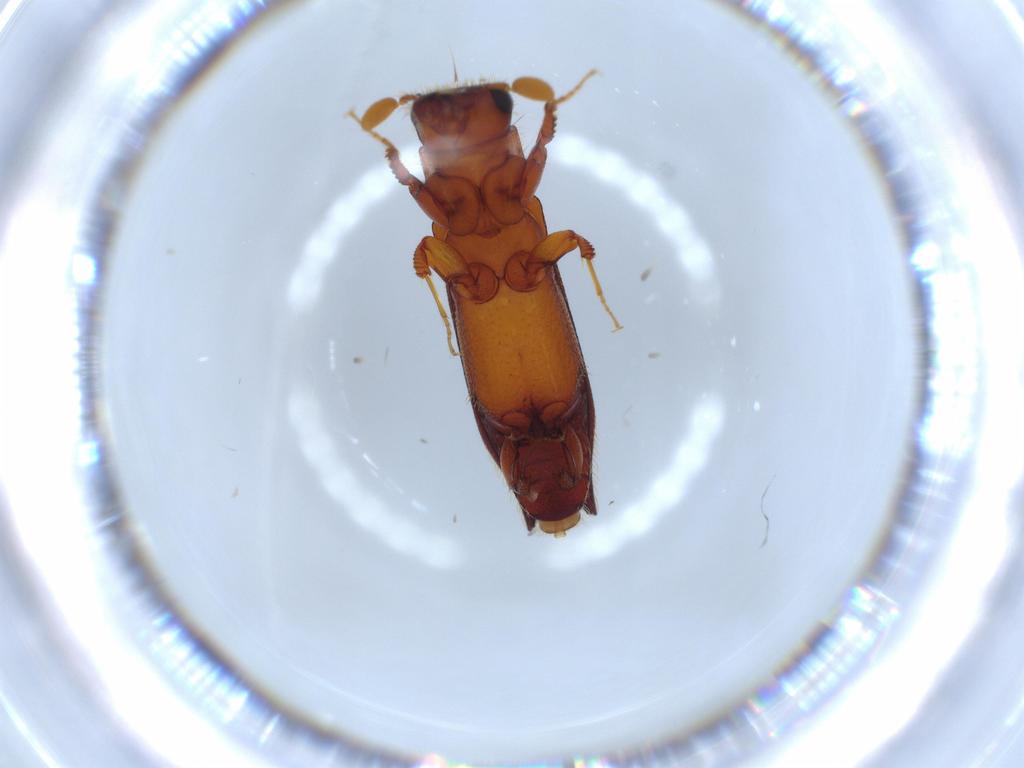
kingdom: Animalia
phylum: Arthropoda
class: Insecta
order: Coleoptera
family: Curculionidae
